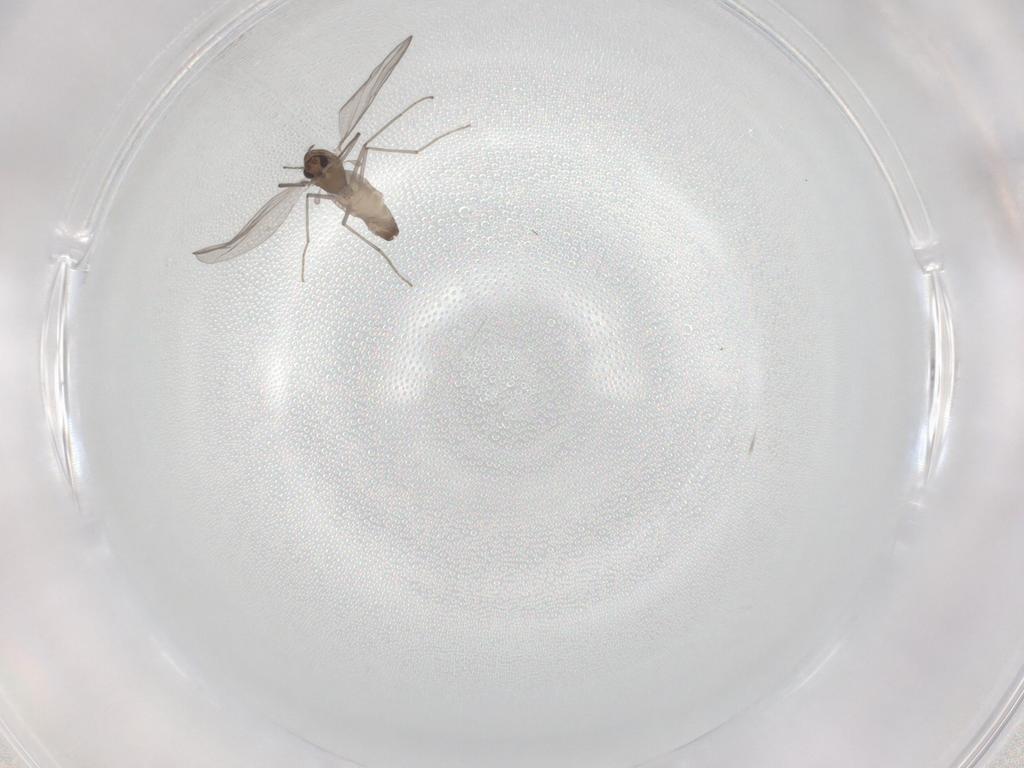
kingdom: Animalia
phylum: Arthropoda
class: Insecta
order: Diptera
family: Chironomidae
